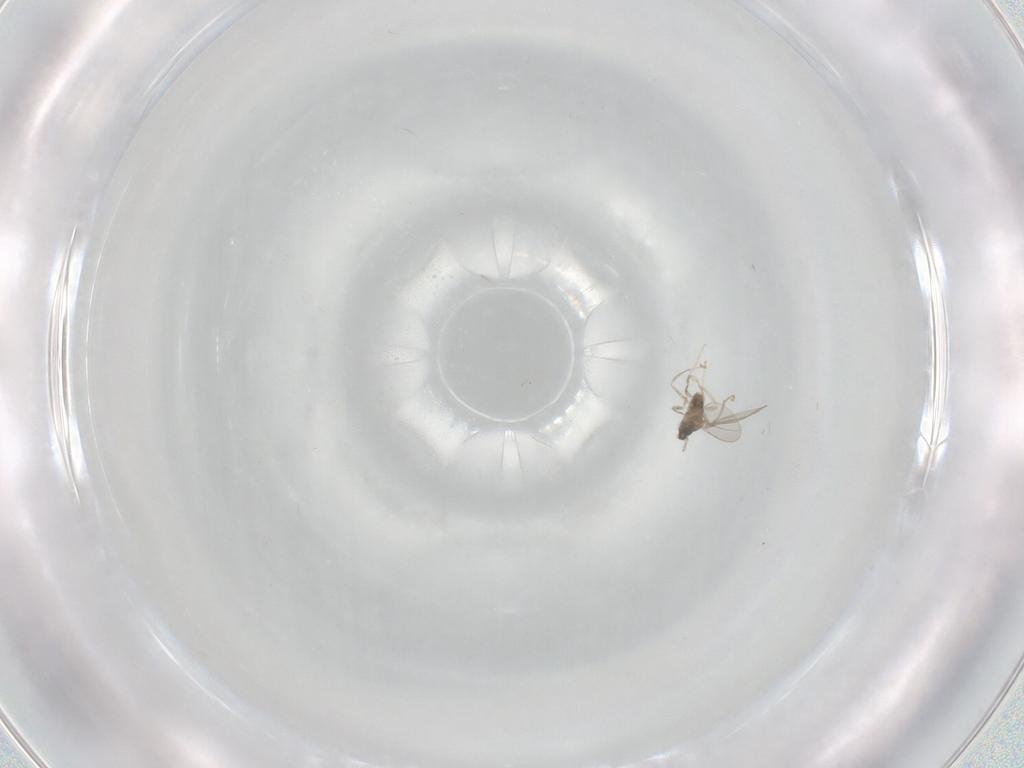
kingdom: Animalia
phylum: Arthropoda
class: Insecta
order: Diptera
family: Cecidomyiidae
